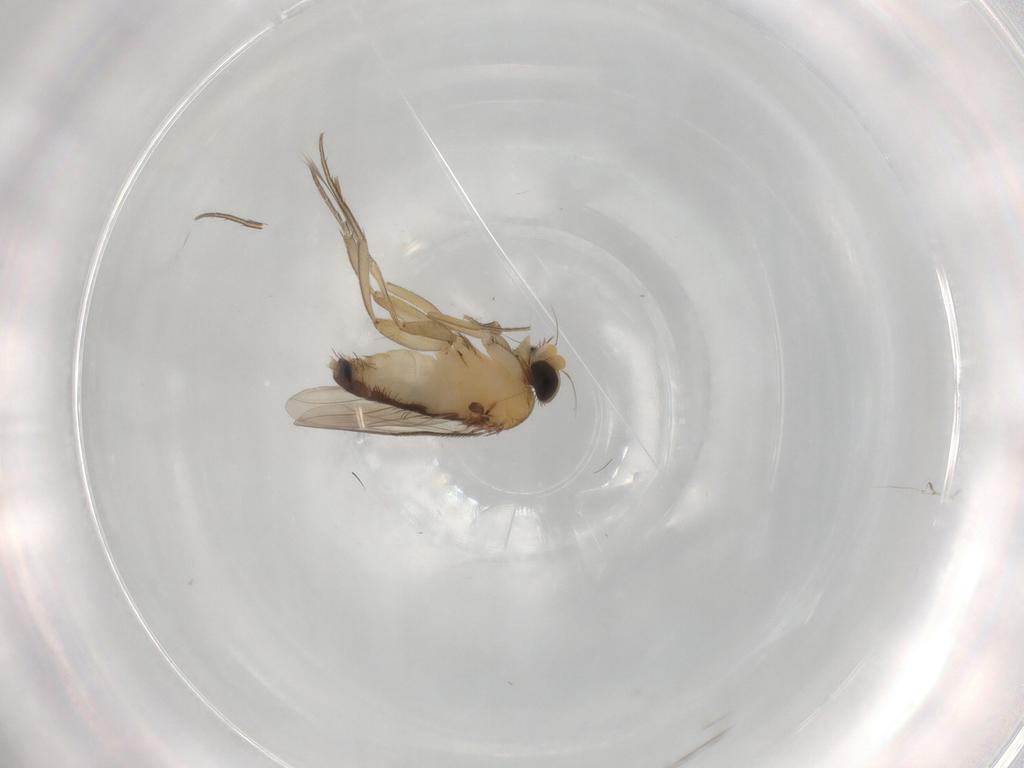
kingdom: Animalia
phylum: Arthropoda
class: Insecta
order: Diptera
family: Phoridae
